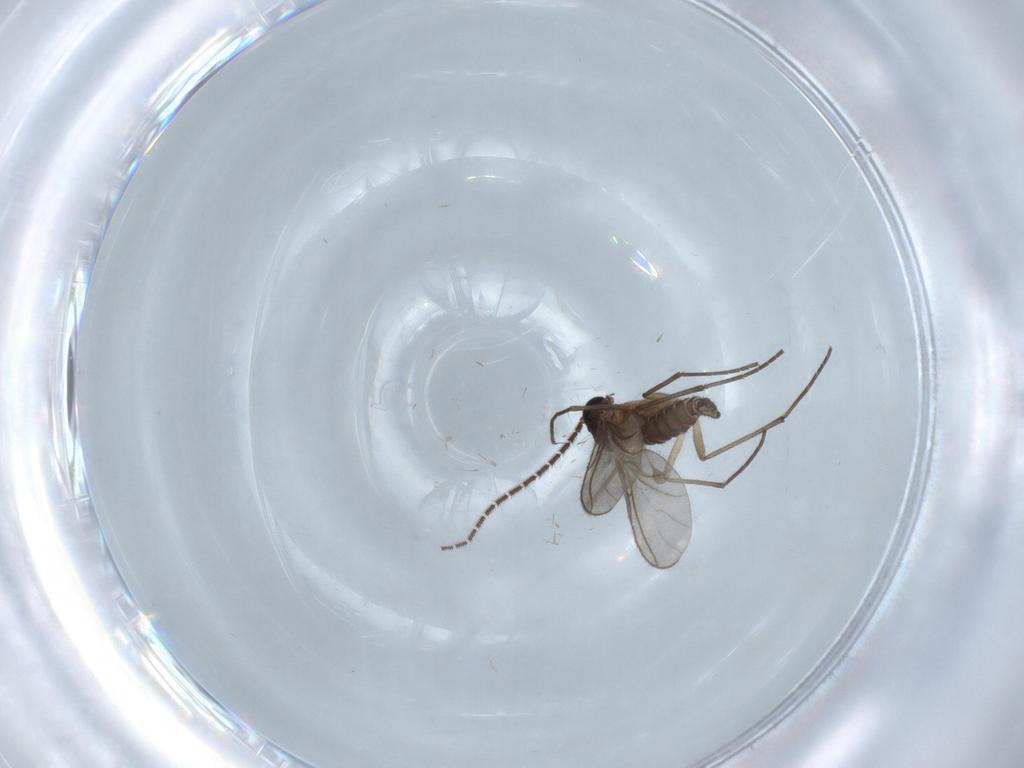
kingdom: Animalia
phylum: Arthropoda
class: Insecta
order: Diptera
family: Sciaridae
